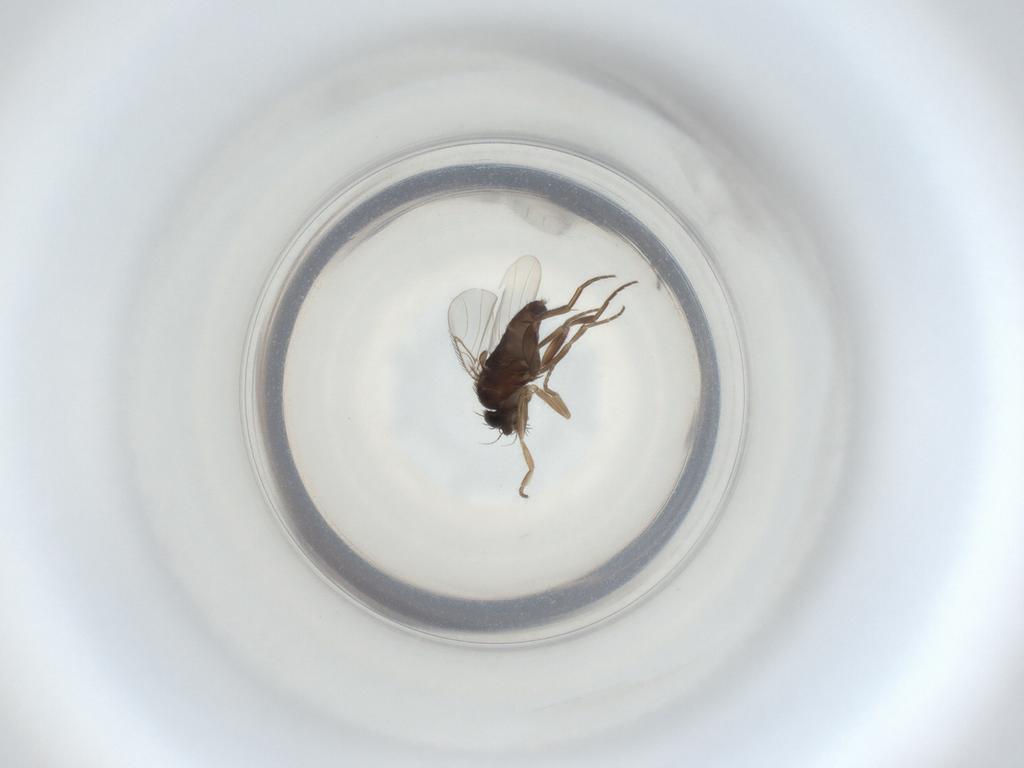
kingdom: Animalia
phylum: Arthropoda
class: Insecta
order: Diptera
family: Phoridae
